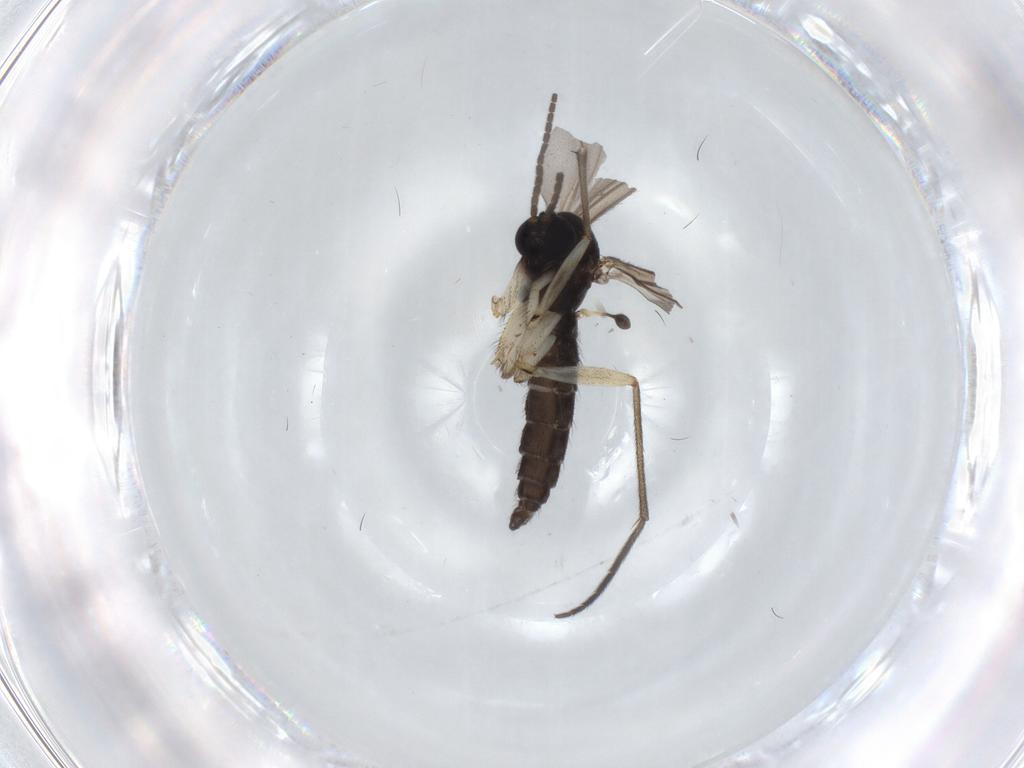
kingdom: Animalia
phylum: Arthropoda
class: Insecta
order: Diptera
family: Sciaridae
